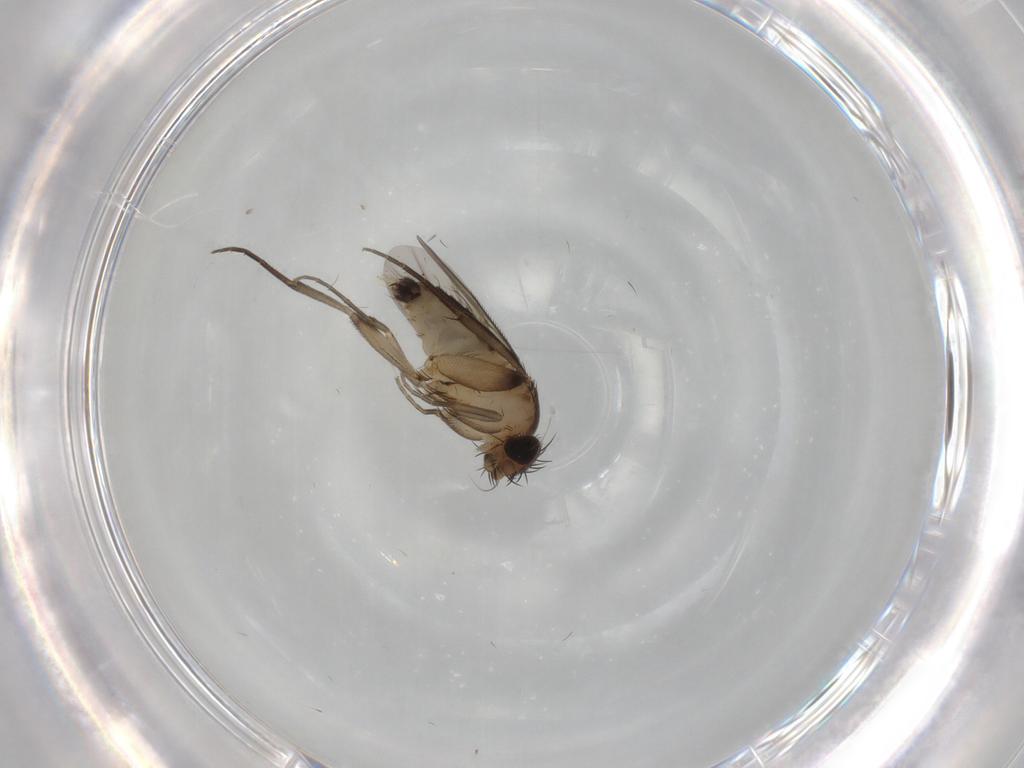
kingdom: Animalia
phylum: Arthropoda
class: Insecta
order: Diptera
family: Phoridae
